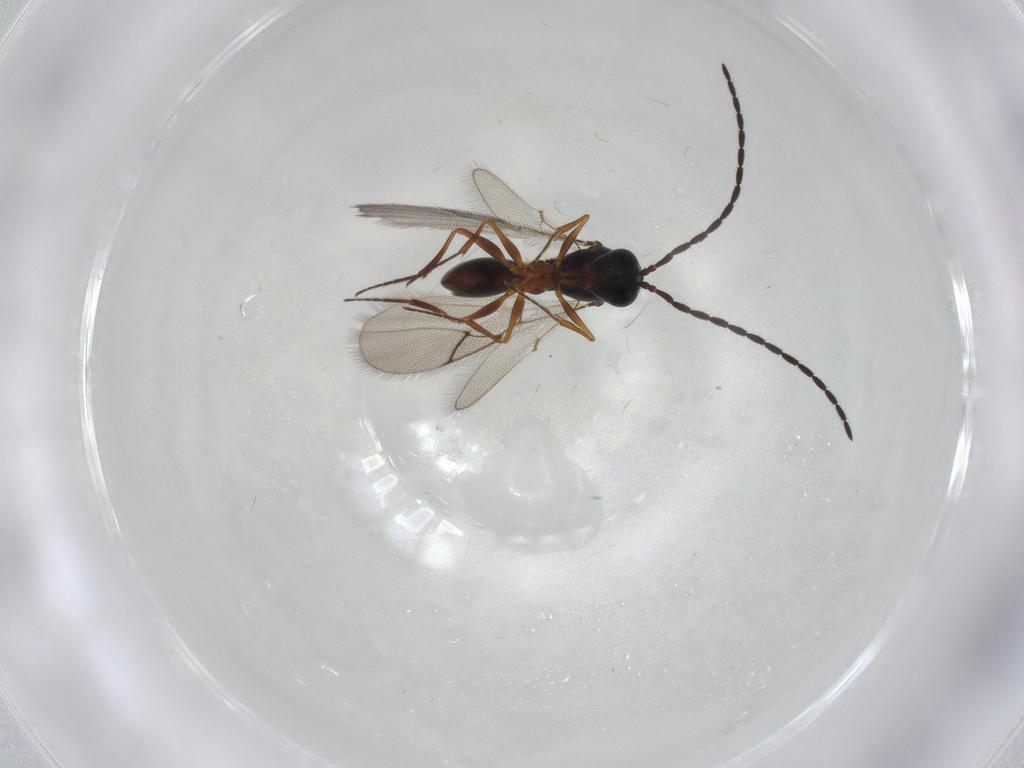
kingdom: Animalia
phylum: Arthropoda
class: Insecta
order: Hymenoptera
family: Figitidae
